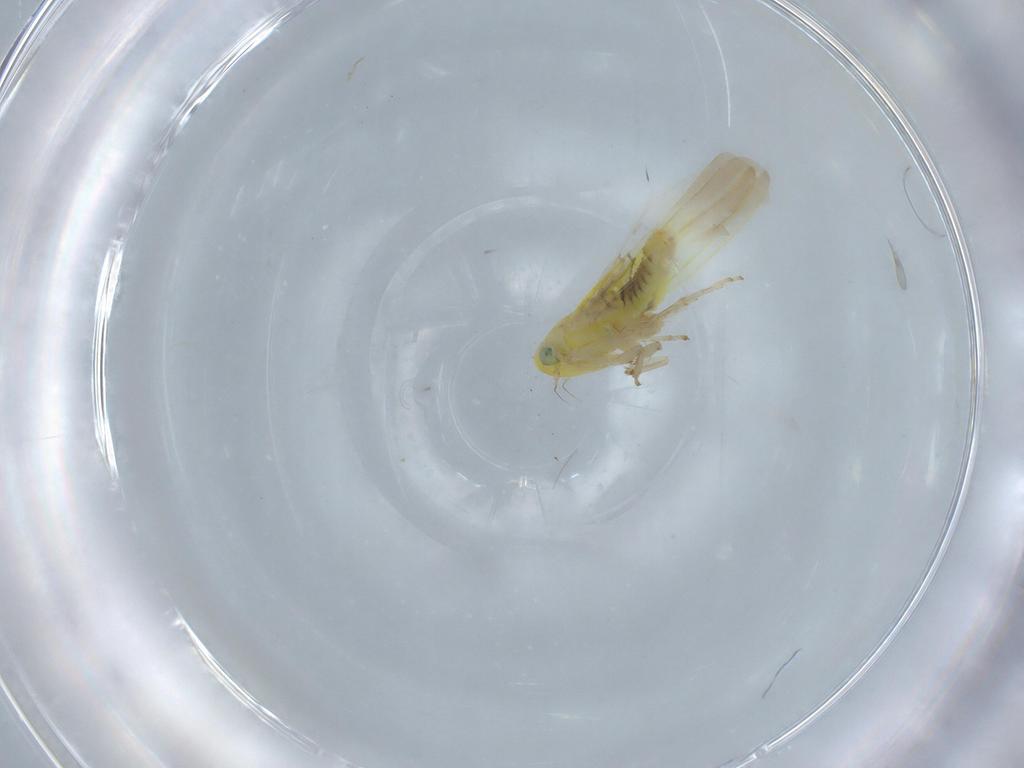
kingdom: Animalia
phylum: Arthropoda
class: Insecta
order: Hemiptera
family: Cicadellidae
